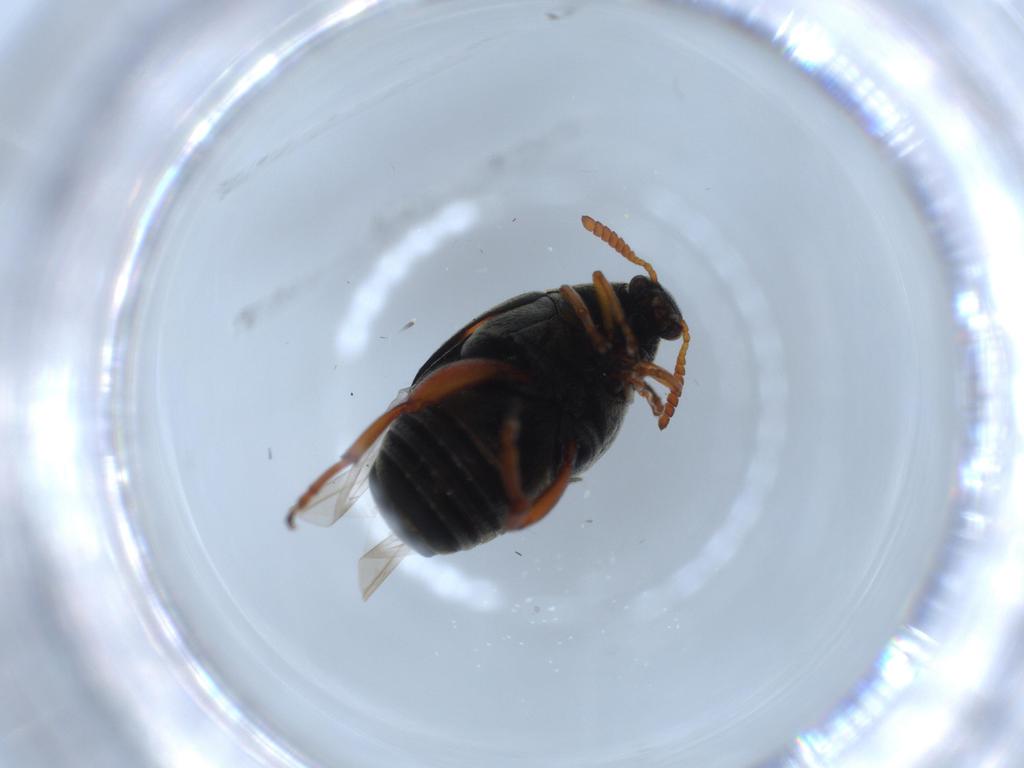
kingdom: Animalia
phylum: Arthropoda
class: Insecta
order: Coleoptera
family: Chrysomelidae
